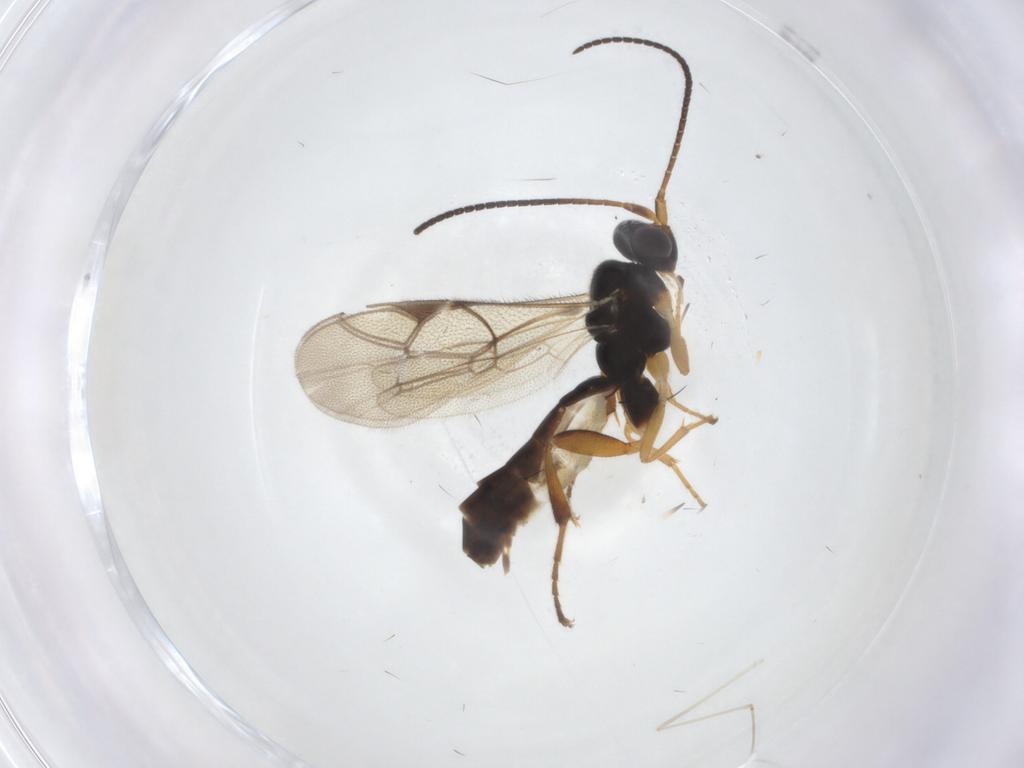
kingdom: Animalia
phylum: Arthropoda
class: Insecta
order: Hymenoptera
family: Ichneumonidae
